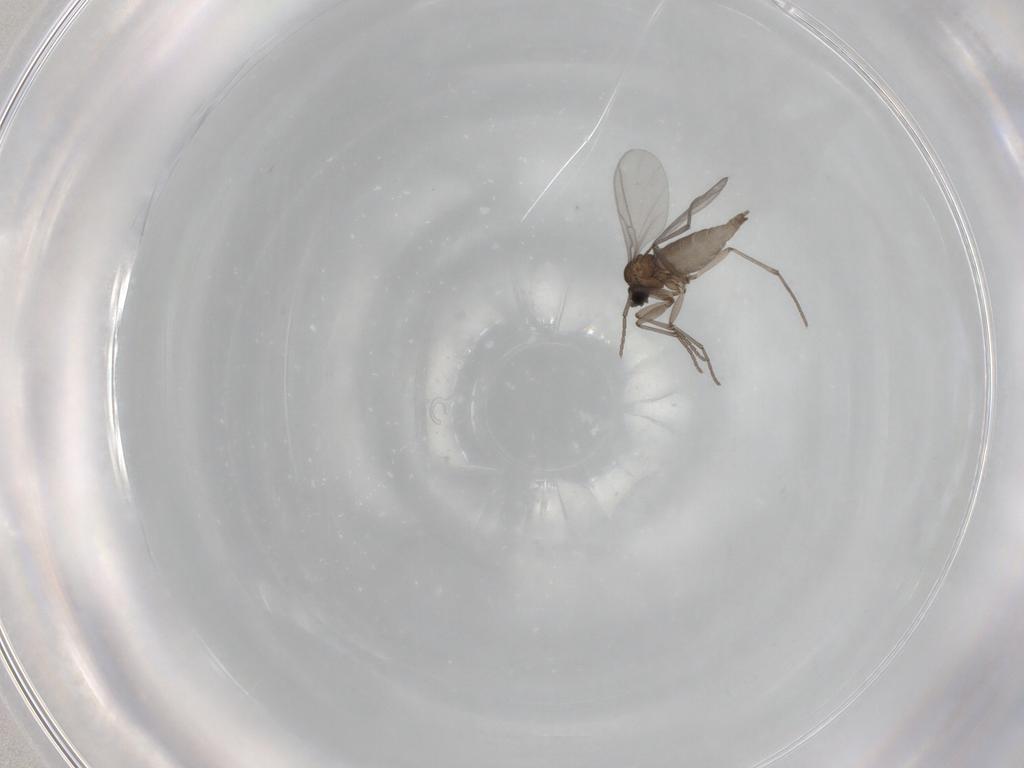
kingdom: Animalia
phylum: Arthropoda
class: Insecta
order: Diptera
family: Sciaridae
